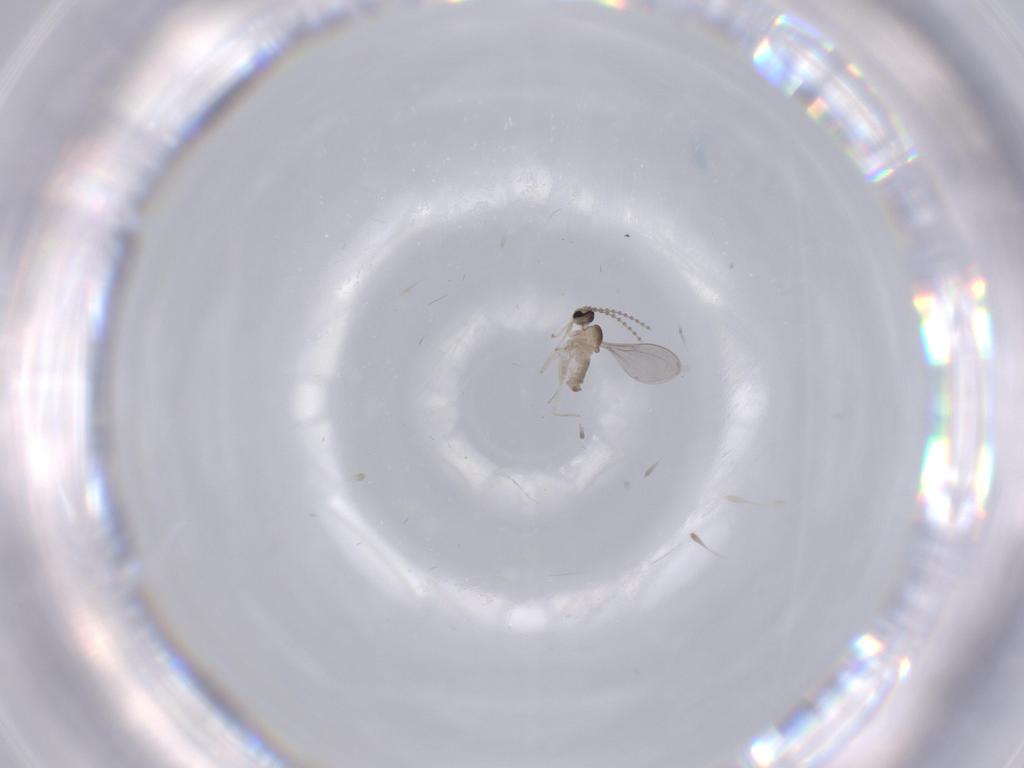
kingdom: Animalia
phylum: Arthropoda
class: Insecta
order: Diptera
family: Cecidomyiidae
